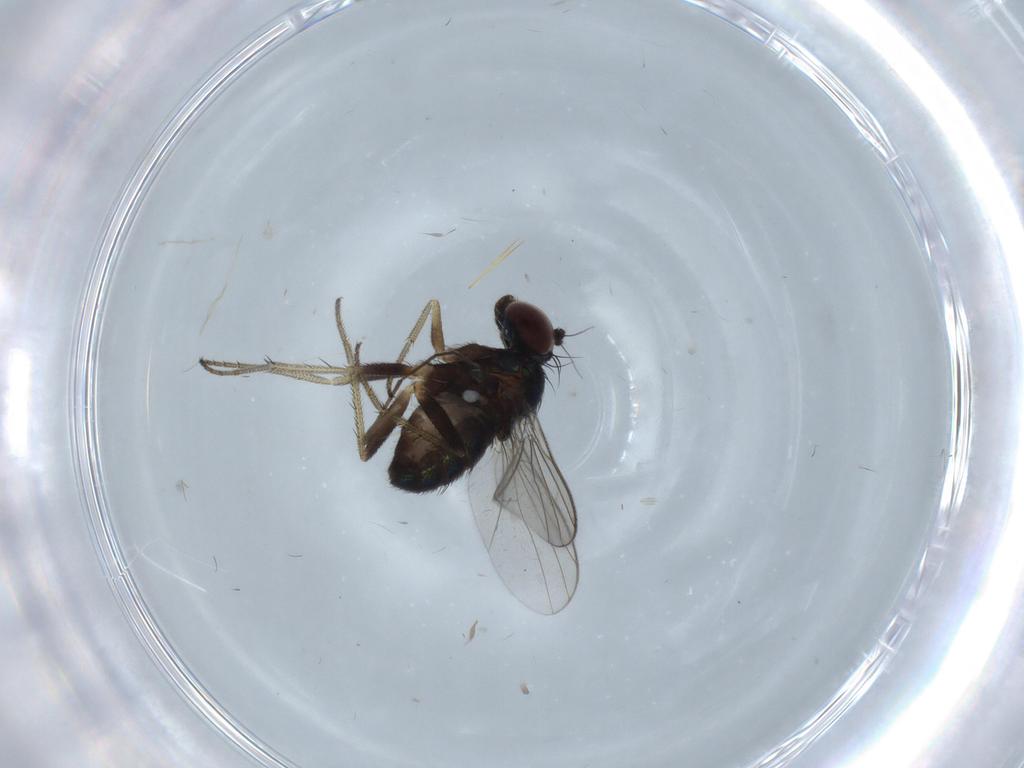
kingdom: Animalia
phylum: Arthropoda
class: Insecta
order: Diptera
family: Dolichopodidae
